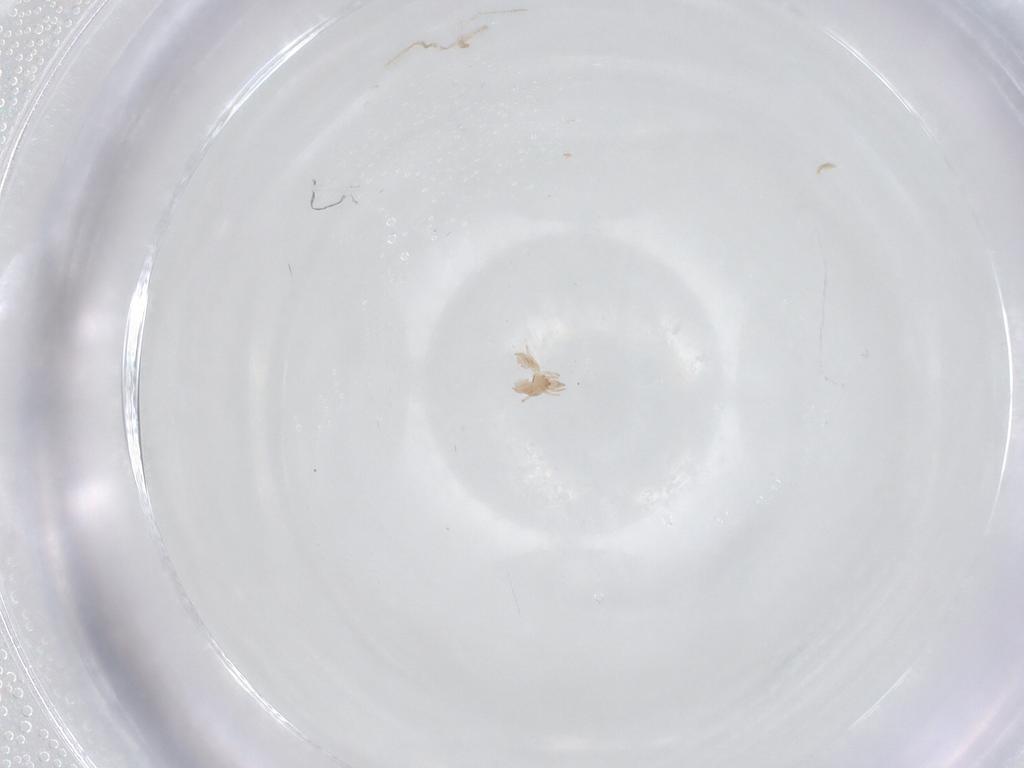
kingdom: Animalia
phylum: Arthropoda
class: Arachnida
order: Trombidiformes
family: Cunaxidae
